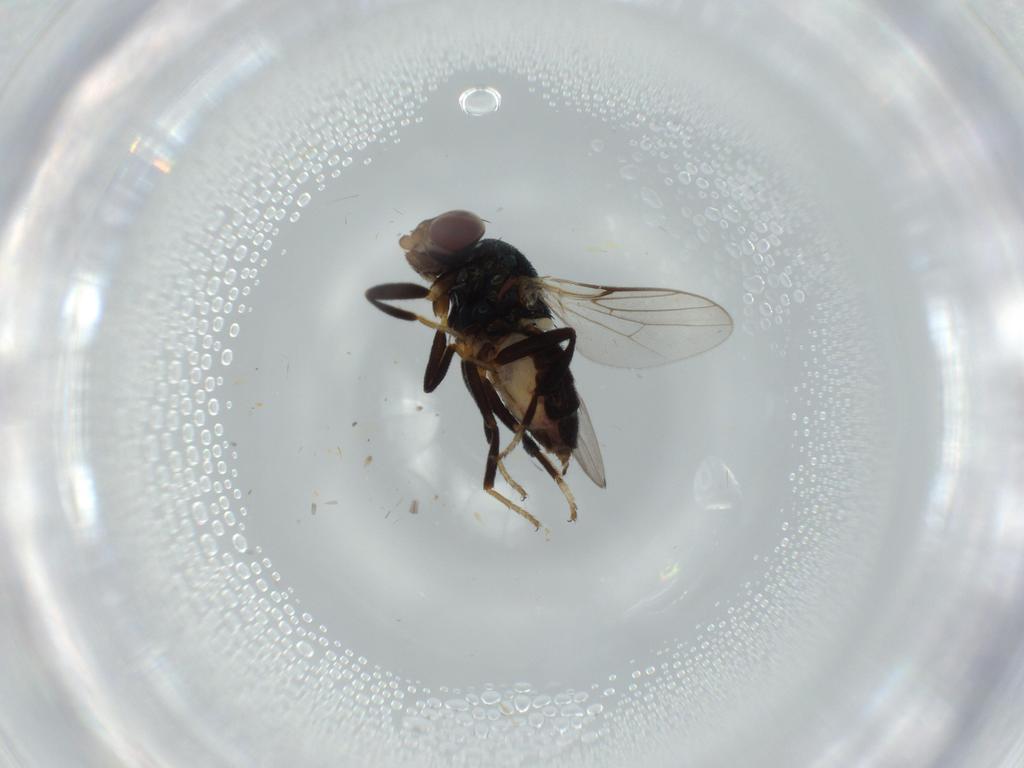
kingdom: Animalia
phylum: Arthropoda
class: Insecta
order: Diptera
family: Chloropidae
